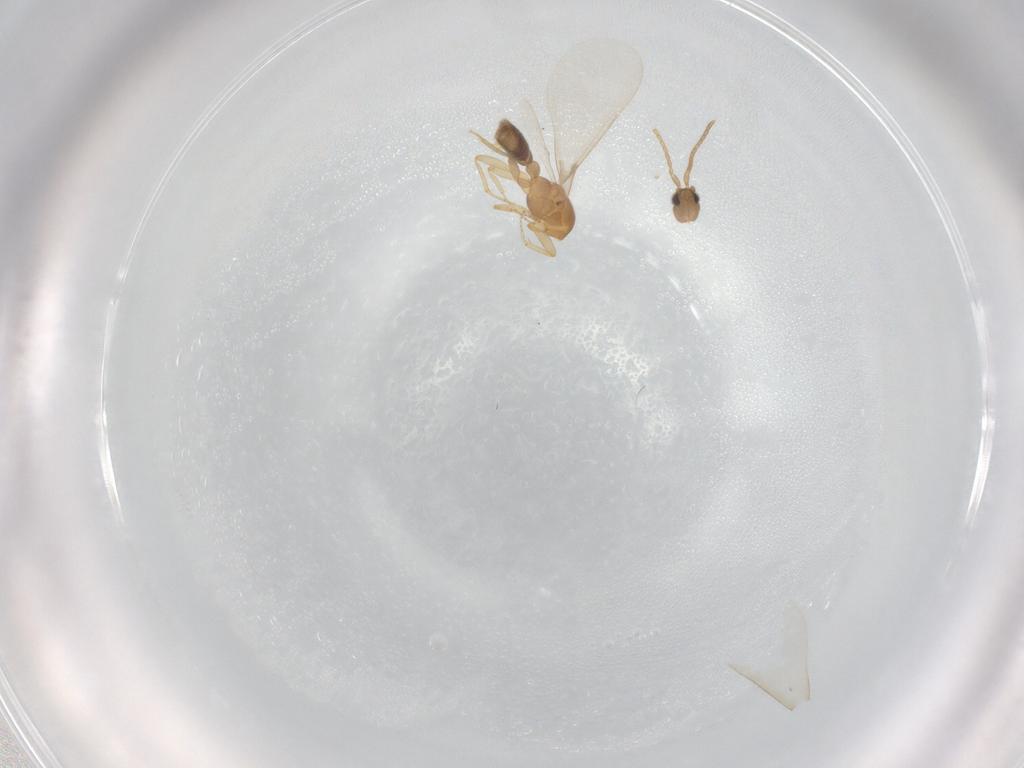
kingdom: Animalia
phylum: Arthropoda
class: Insecta
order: Hymenoptera
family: Formicidae
